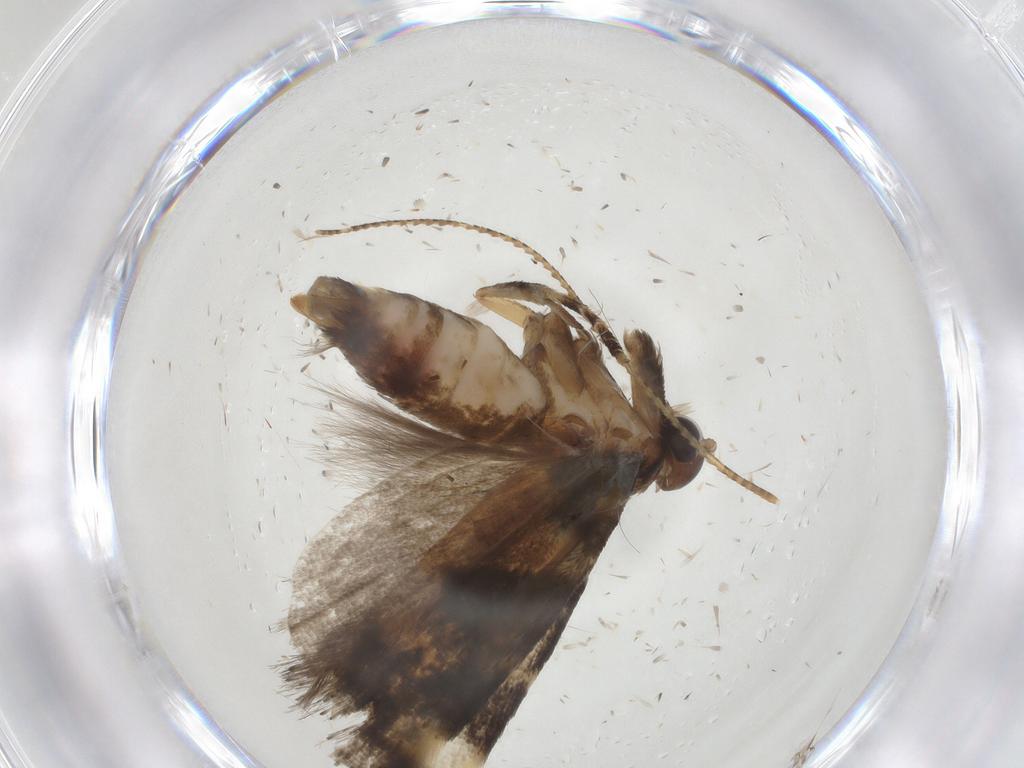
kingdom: Animalia
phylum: Arthropoda
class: Insecta
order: Lepidoptera
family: Gelechiidae
